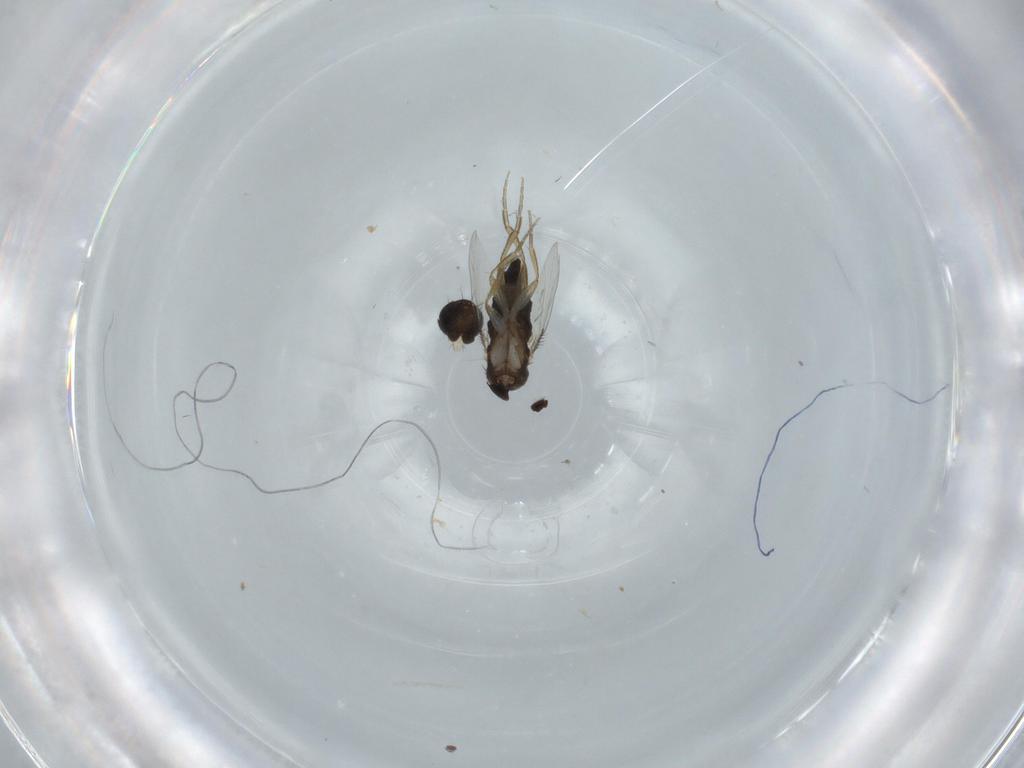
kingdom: Animalia
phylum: Arthropoda
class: Insecta
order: Diptera
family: Phoridae
